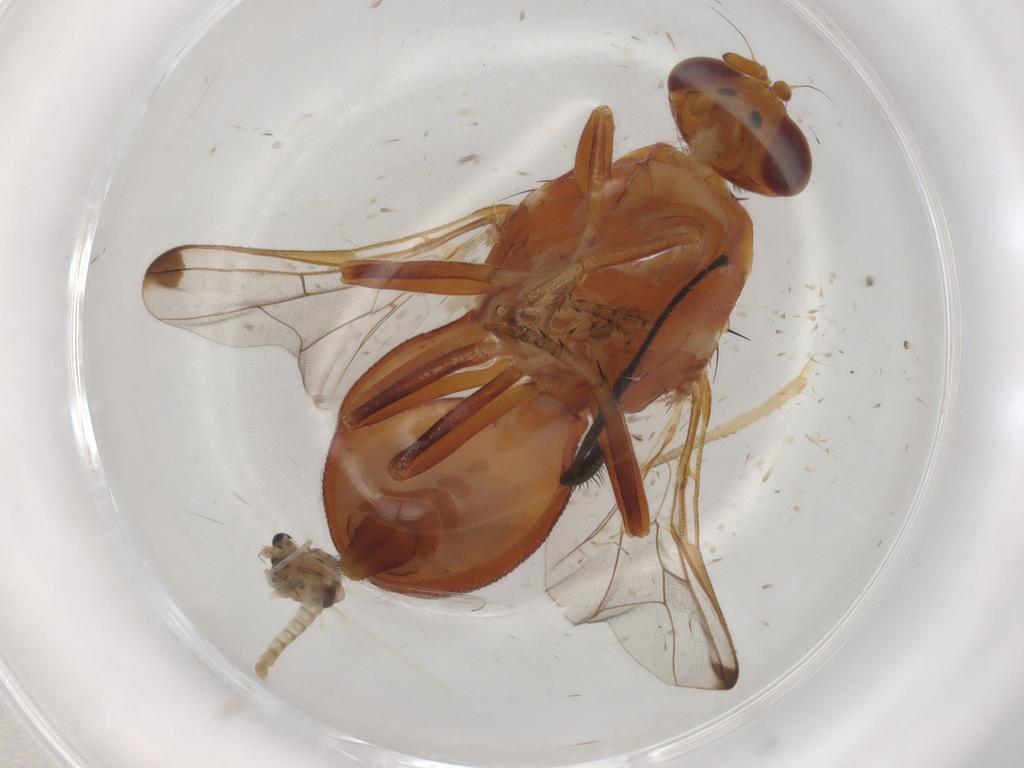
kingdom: Animalia
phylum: Arthropoda
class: Insecta
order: Diptera
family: Tephritidae
